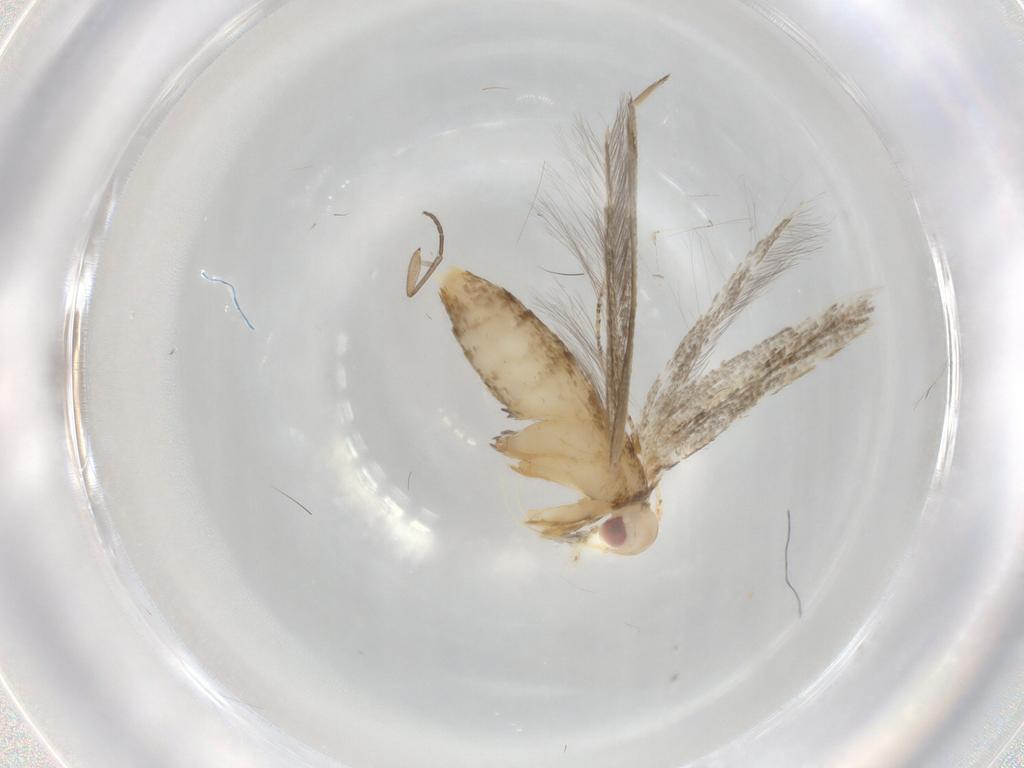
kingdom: Animalia
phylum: Arthropoda
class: Insecta
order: Lepidoptera
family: Cosmopterigidae
